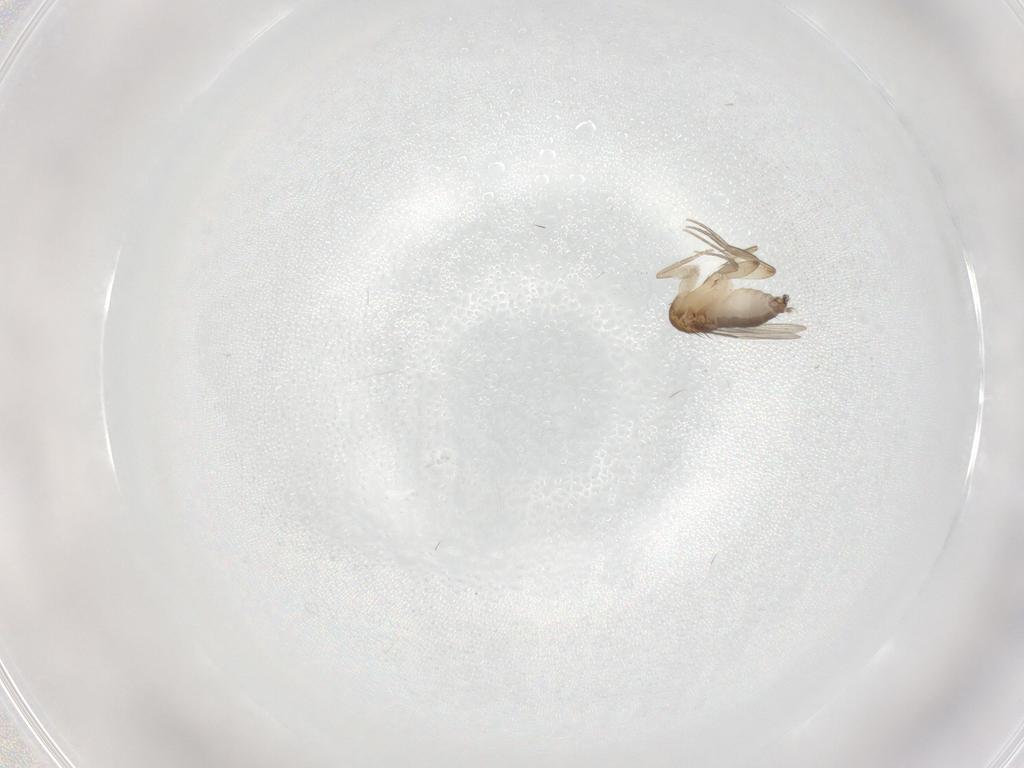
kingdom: Animalia
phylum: Arthropoda
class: Insecta
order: Diptera
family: Phoridae
